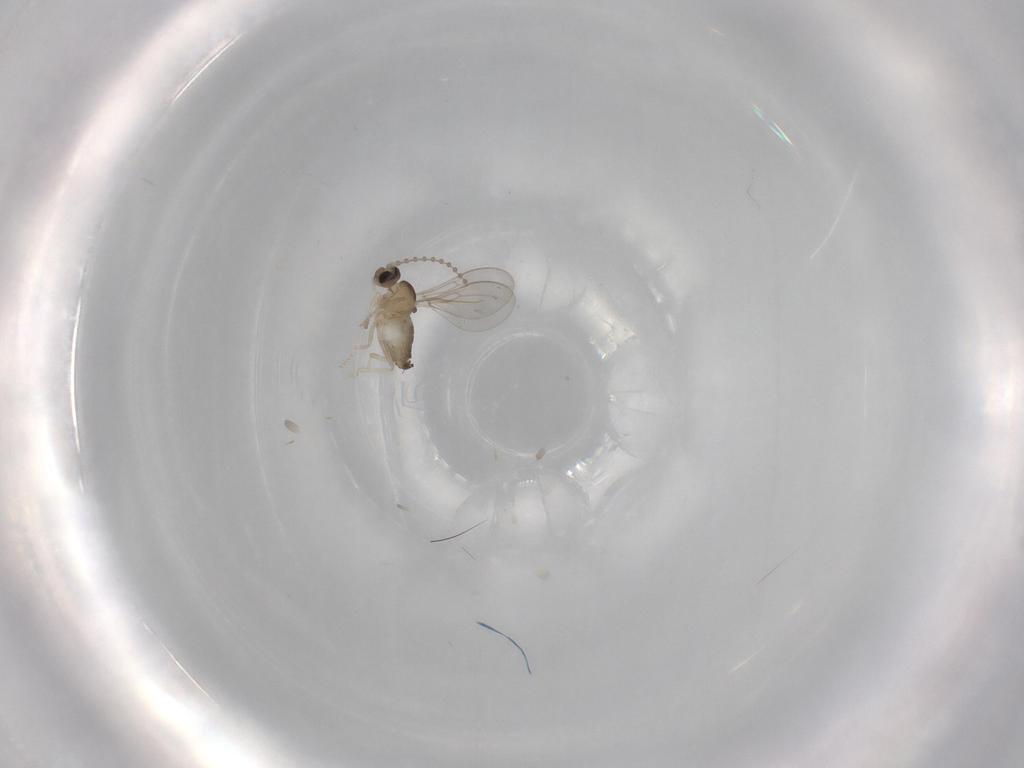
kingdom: Animalia
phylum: Arthropoda
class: Insecta
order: Diptera
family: Cecidomyiidae
